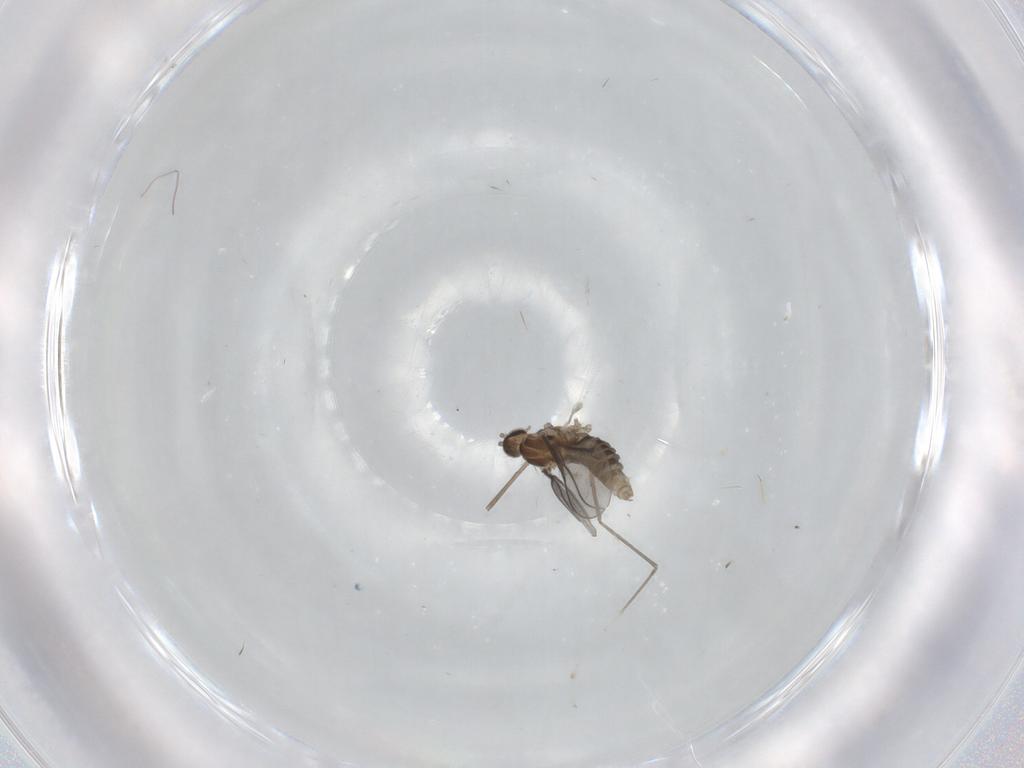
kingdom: Animalia
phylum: Arthropoda
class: Insecta
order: Diptera
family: Cecidomyiidae
